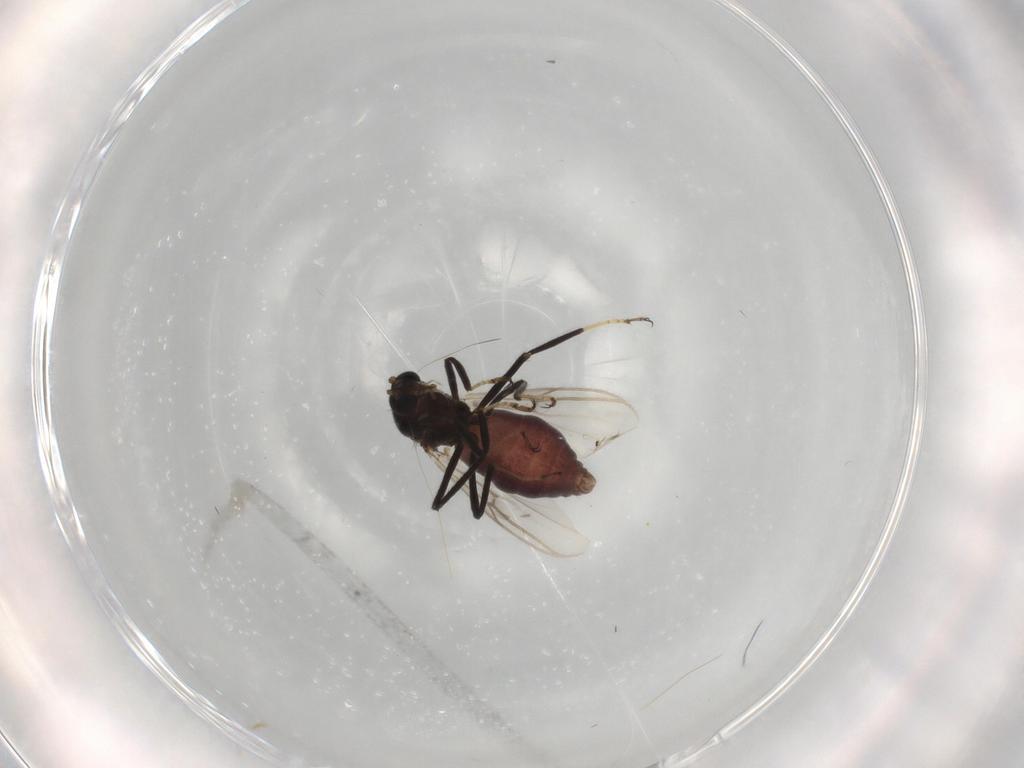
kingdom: Animalia
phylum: Arthropoda
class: Insecta
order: Diptera
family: Ceratopogonidae
